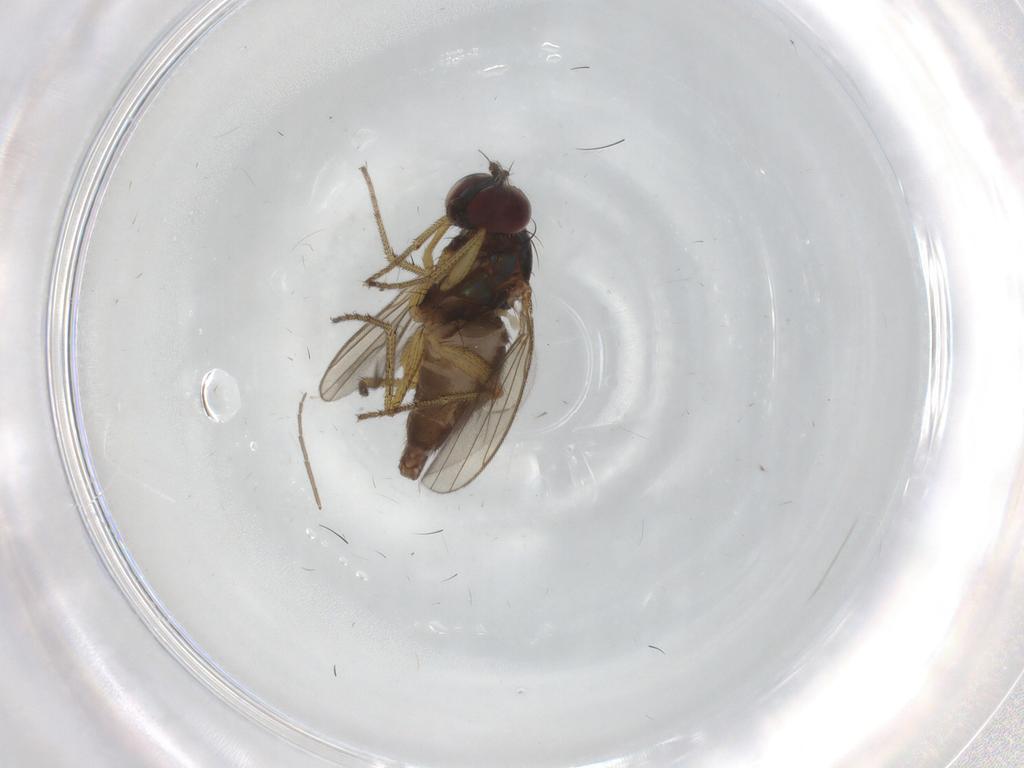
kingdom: Animalia
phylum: Arthropoda
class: Insecta
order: Diptera
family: Chironomidae
